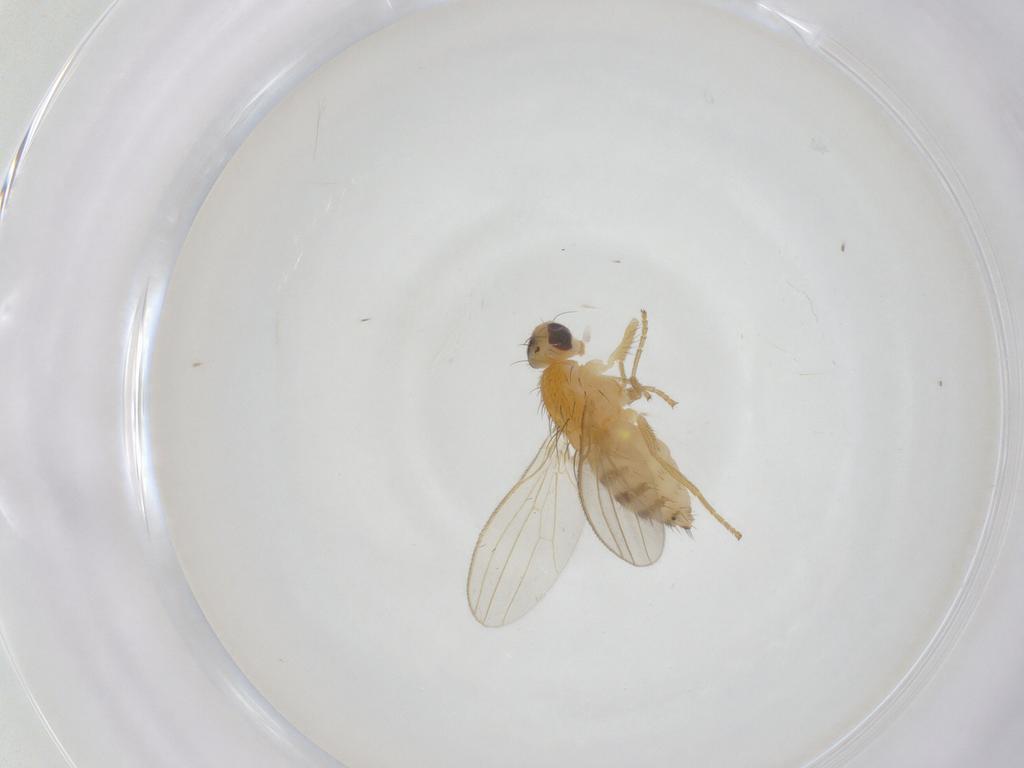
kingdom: Animalia
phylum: Arthropoda
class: Insecta
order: Diptera
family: Chyromyidae
